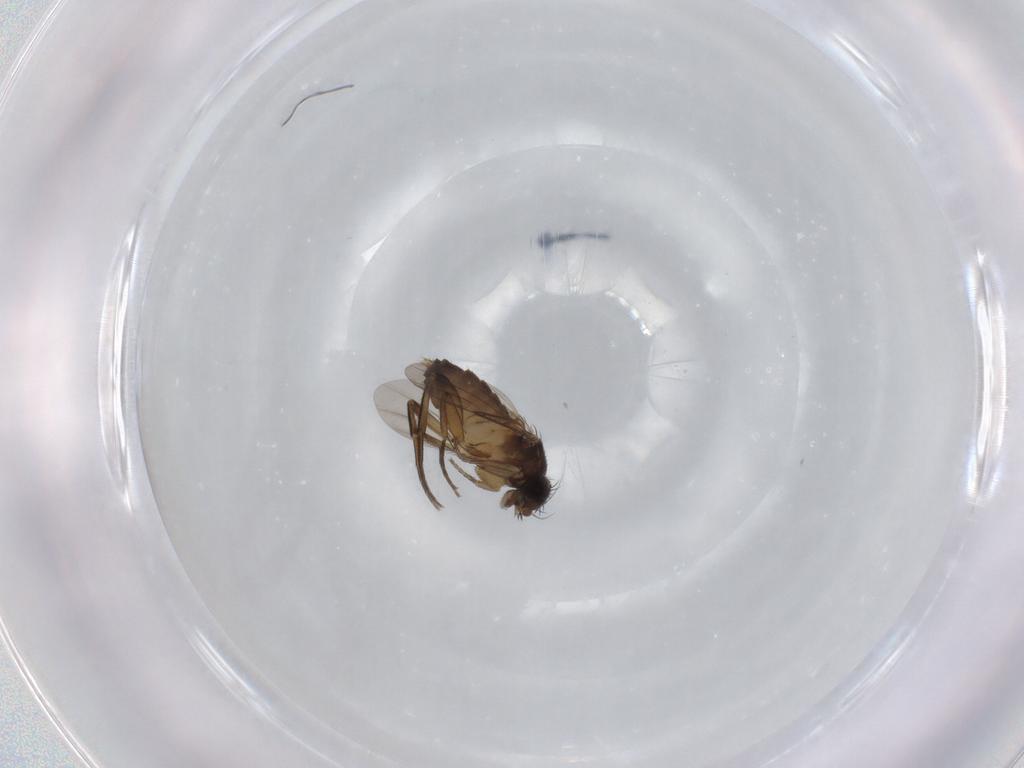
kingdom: Animalia
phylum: Arthropoda
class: Insecta
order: Diptera
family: Phoridae
